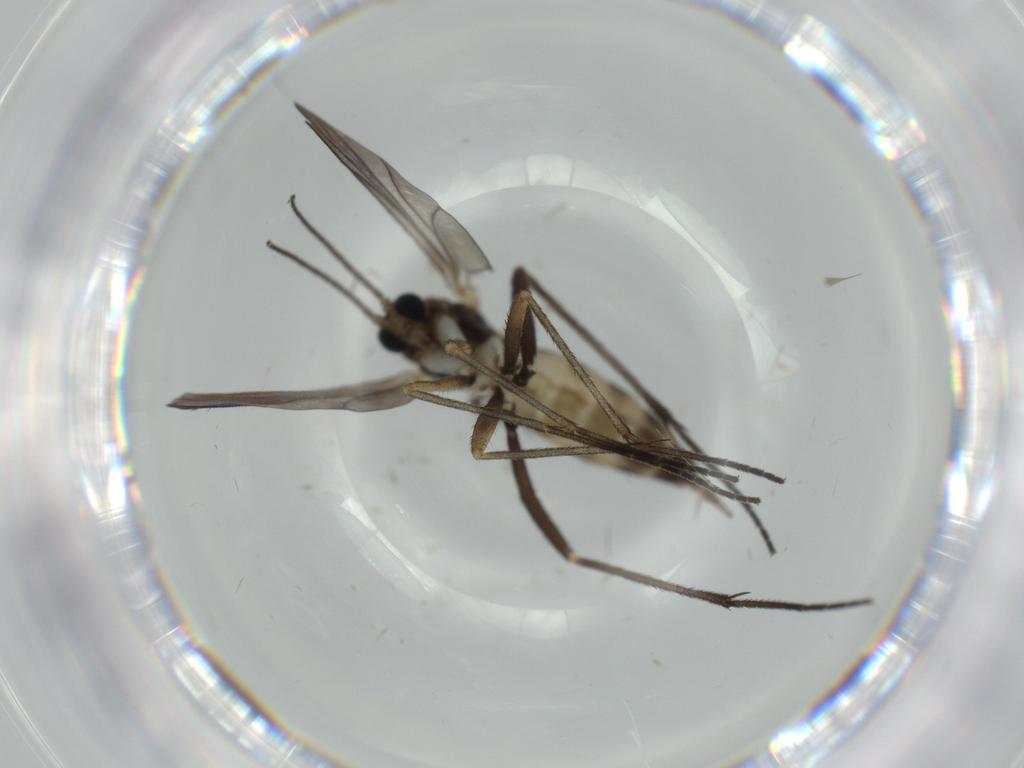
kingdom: Animalia
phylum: Arthropoda
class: Insecta
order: Diptera
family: Sciaridae
